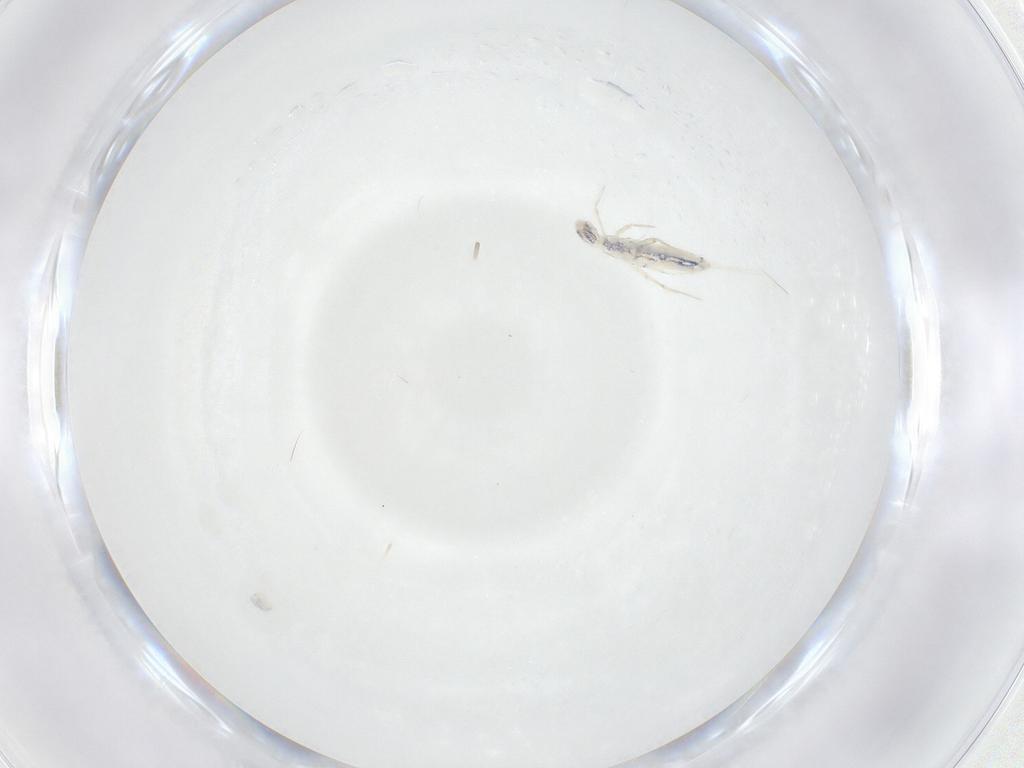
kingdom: Animalia
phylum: Arthropoda
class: Collembola
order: Entomobryomorpha
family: Entomobryidae
